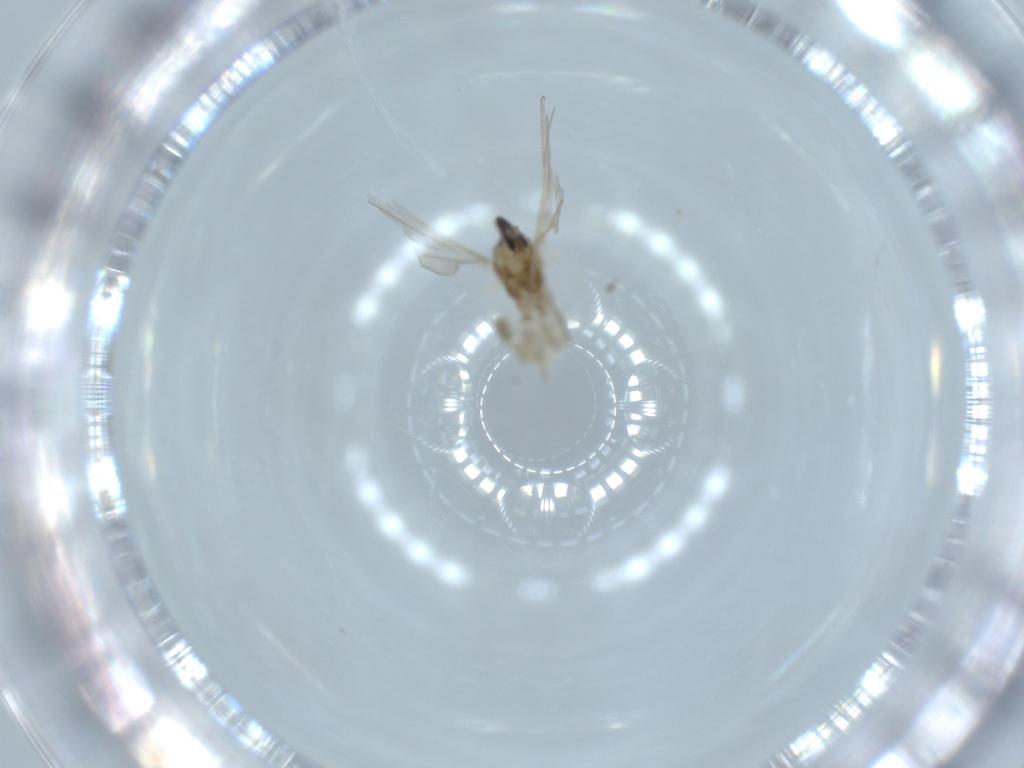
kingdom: Animalia
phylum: Arthropoda
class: Insecta
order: Diptera
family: Cecidomyiidae
